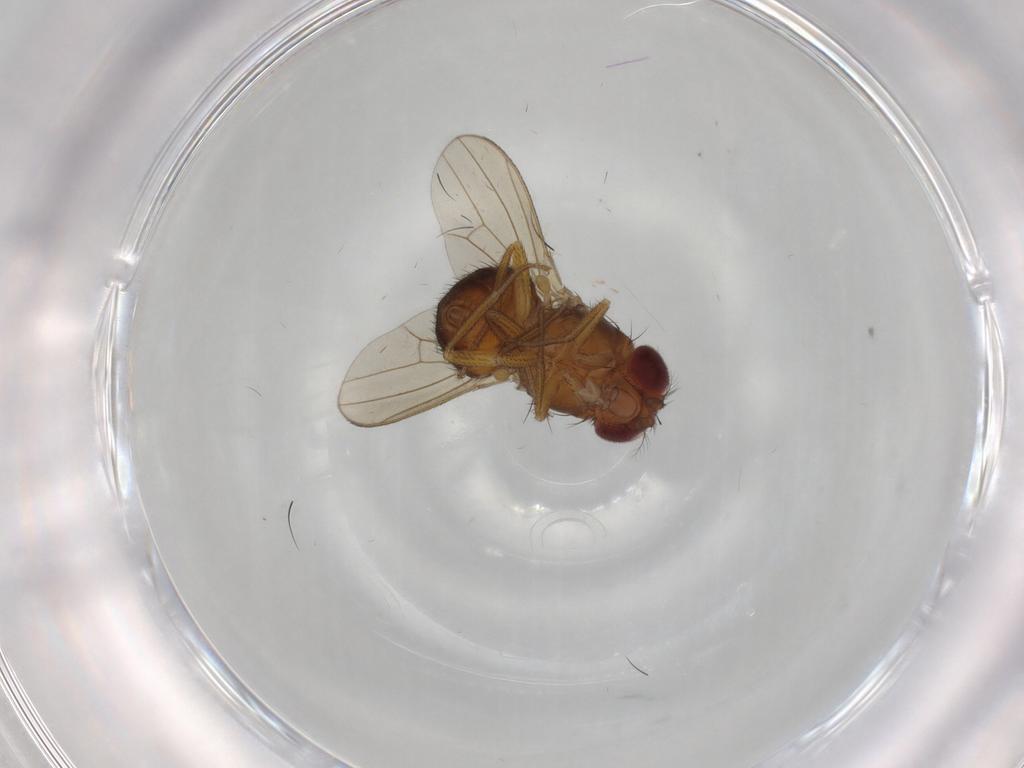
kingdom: Animalia
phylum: Arthropoda
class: Insecta
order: Diptera
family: Drosophilidae
